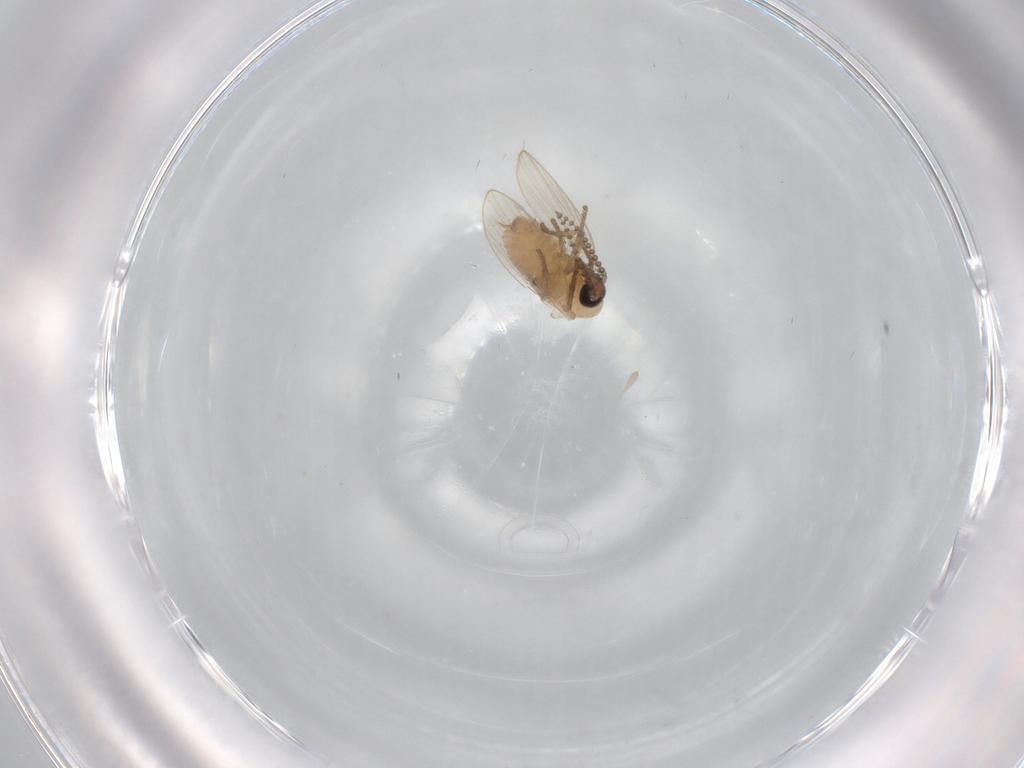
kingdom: Animalia
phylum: Arthropoda
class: Insecta
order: Diptera
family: Psychodidae
